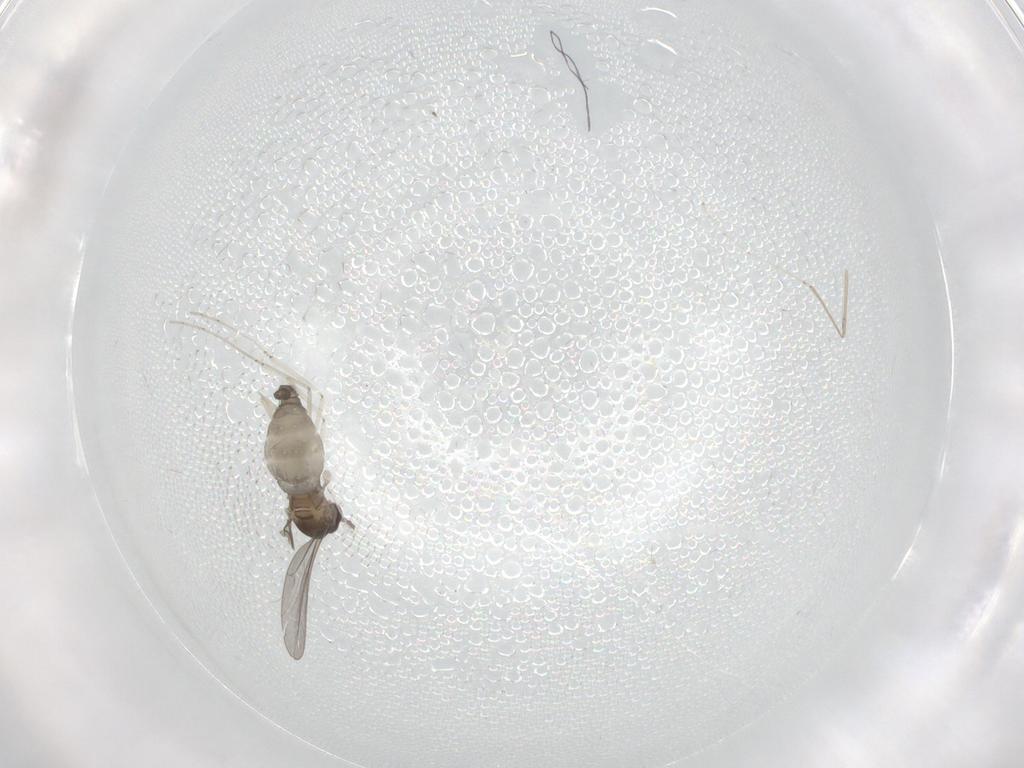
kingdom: Animalia
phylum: Arthropoda
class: Insecta
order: Diptera
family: Cecidomyiidae
